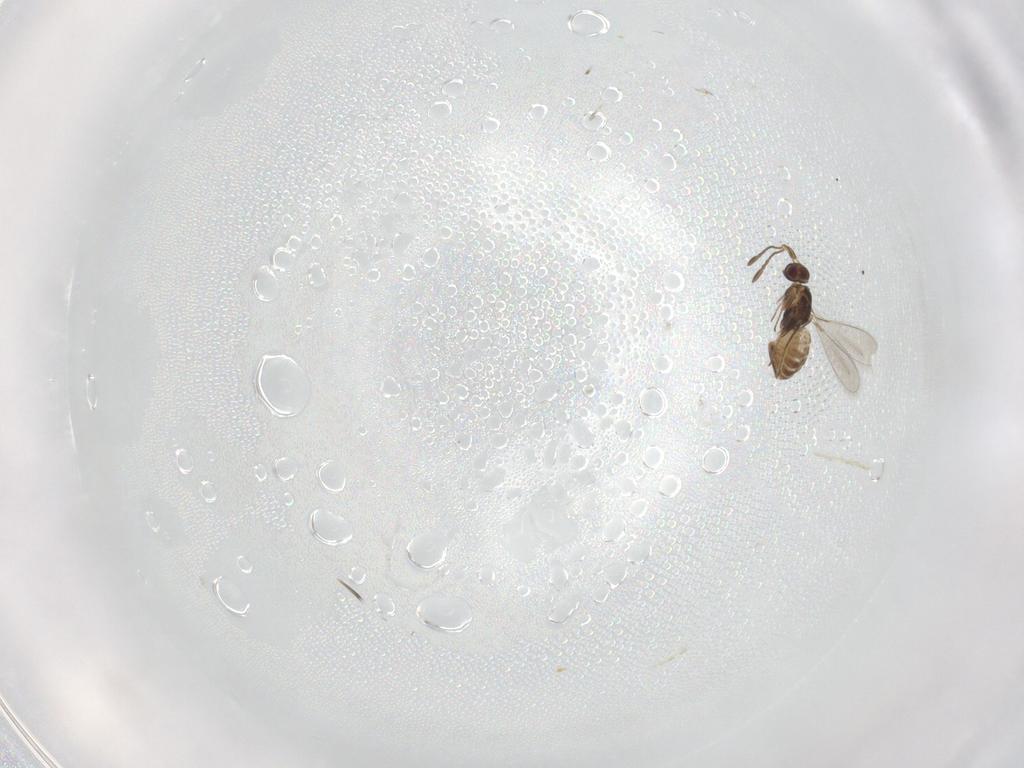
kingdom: Animalia
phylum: Arthropoda
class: Insecta
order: Hymenoptera
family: Mymaridae
